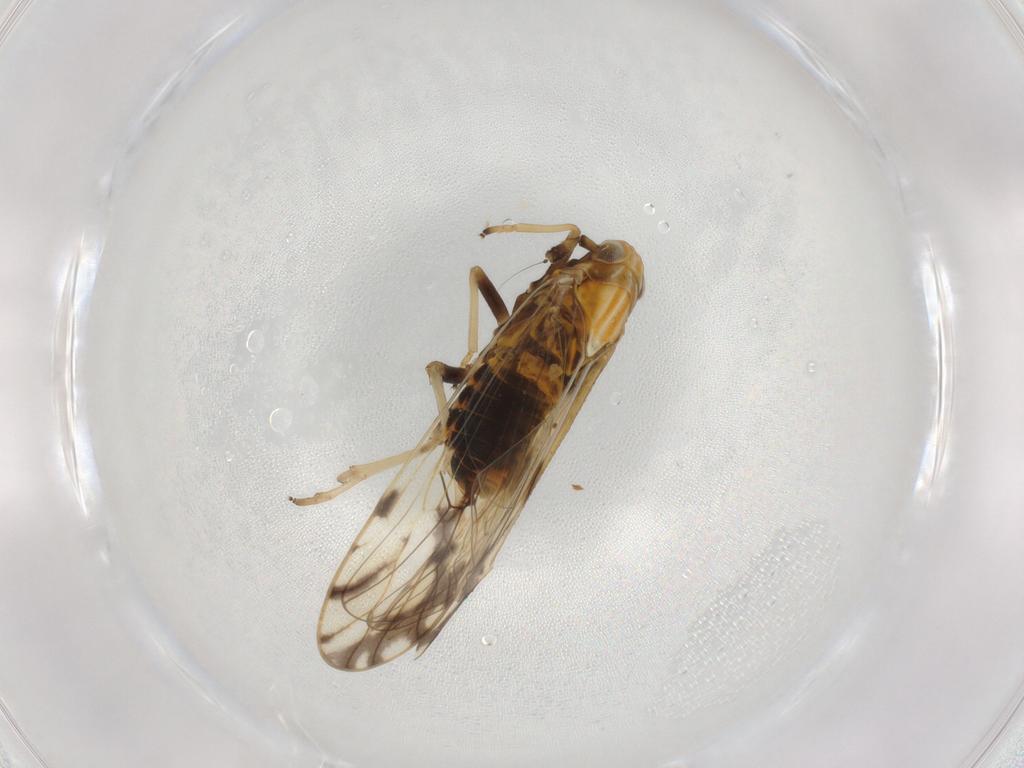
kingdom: Animalia
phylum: Arthropoda
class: Insecta
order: Hemiptera
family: Delphacidae
